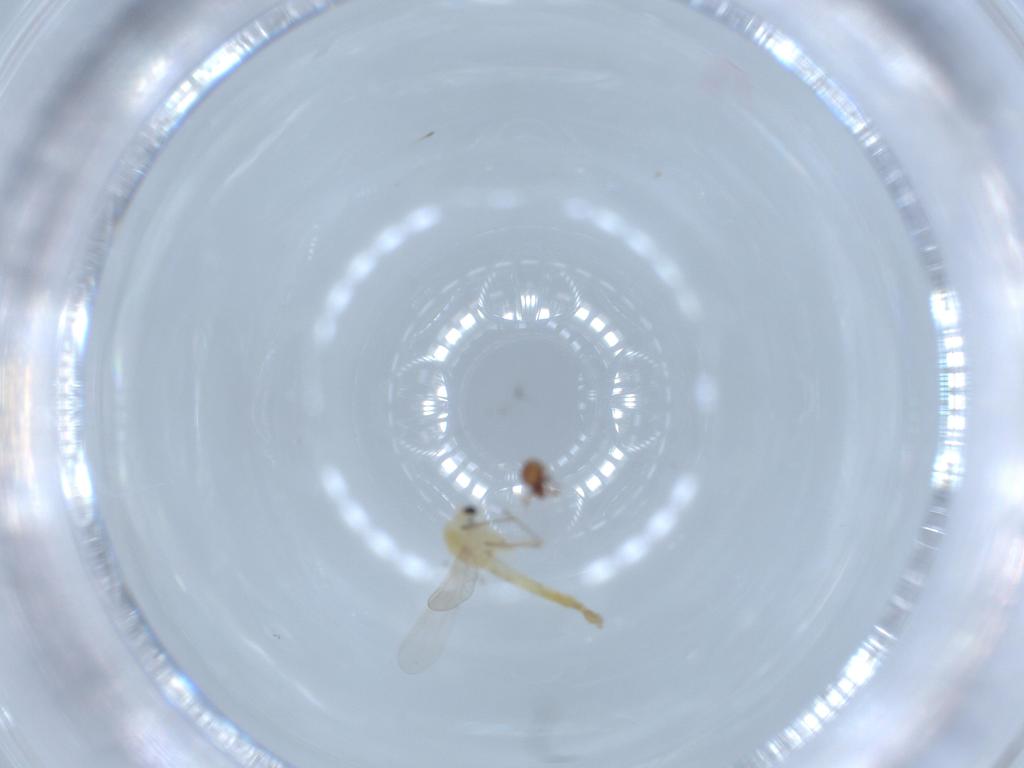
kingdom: Animalia
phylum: Arthropoda
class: Insecta
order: Diptera
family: Chironomidae
